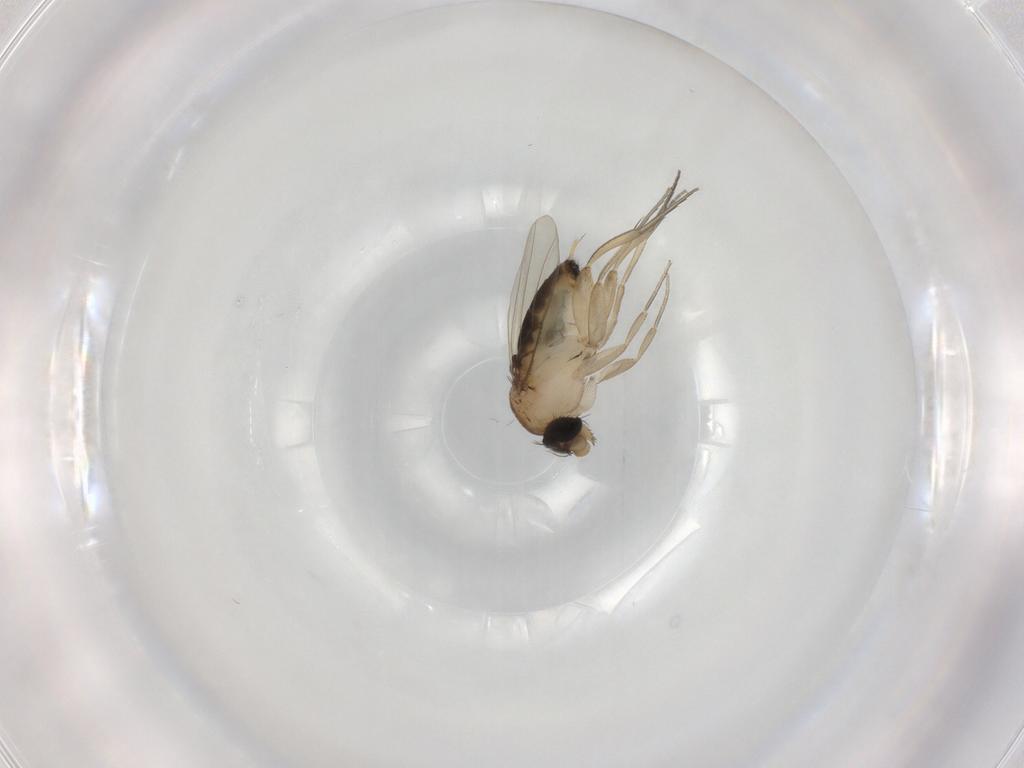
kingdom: Animalia
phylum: Arthropoda
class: Insecta
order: Diptera
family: Phoridae
